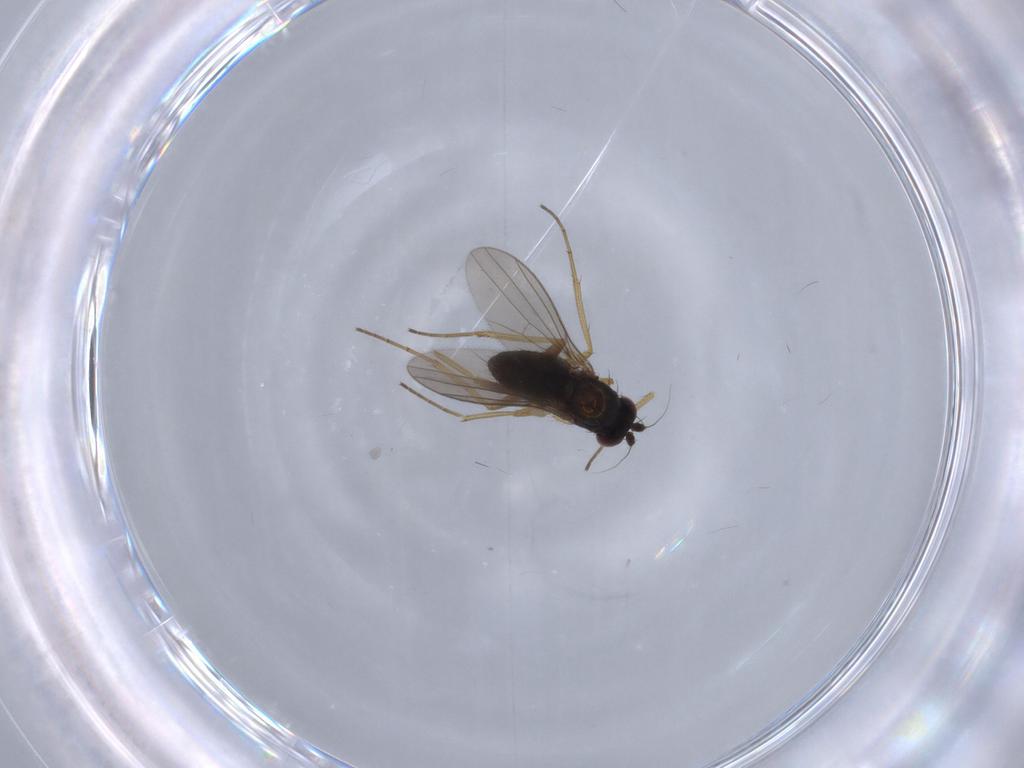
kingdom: Animalia
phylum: Arthropoda
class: Insecta
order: Diptera
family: Dolichopodidae
